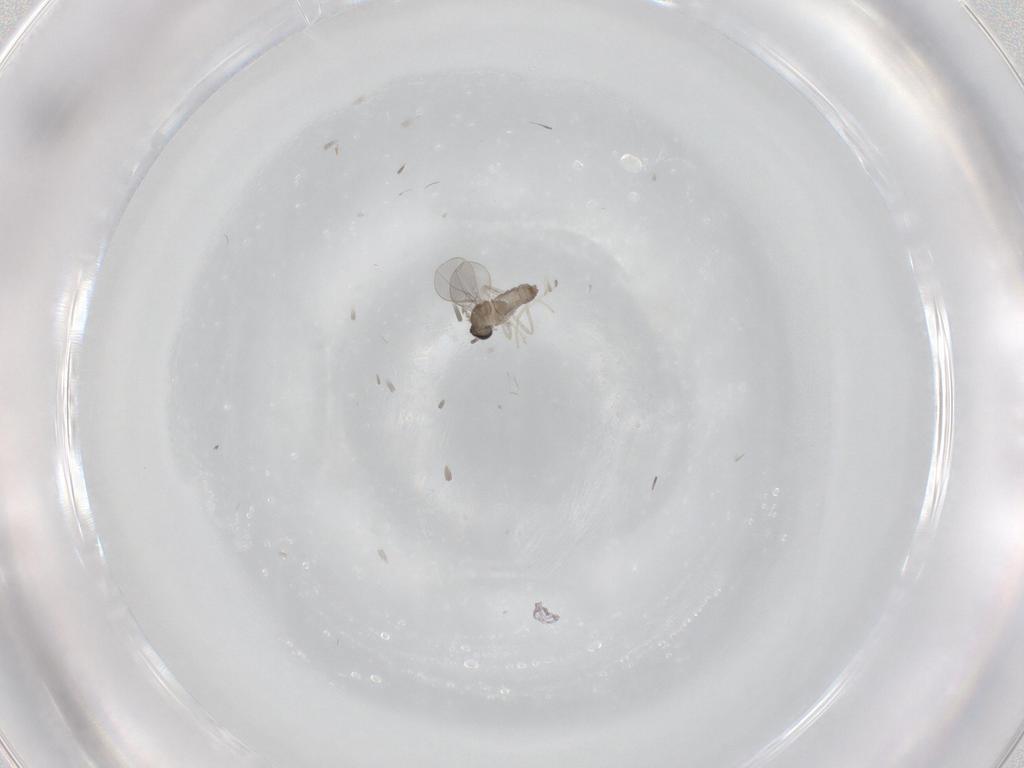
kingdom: Animalia
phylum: Arthropoda
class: Insecta
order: Diptera
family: Cecidomyiidae
